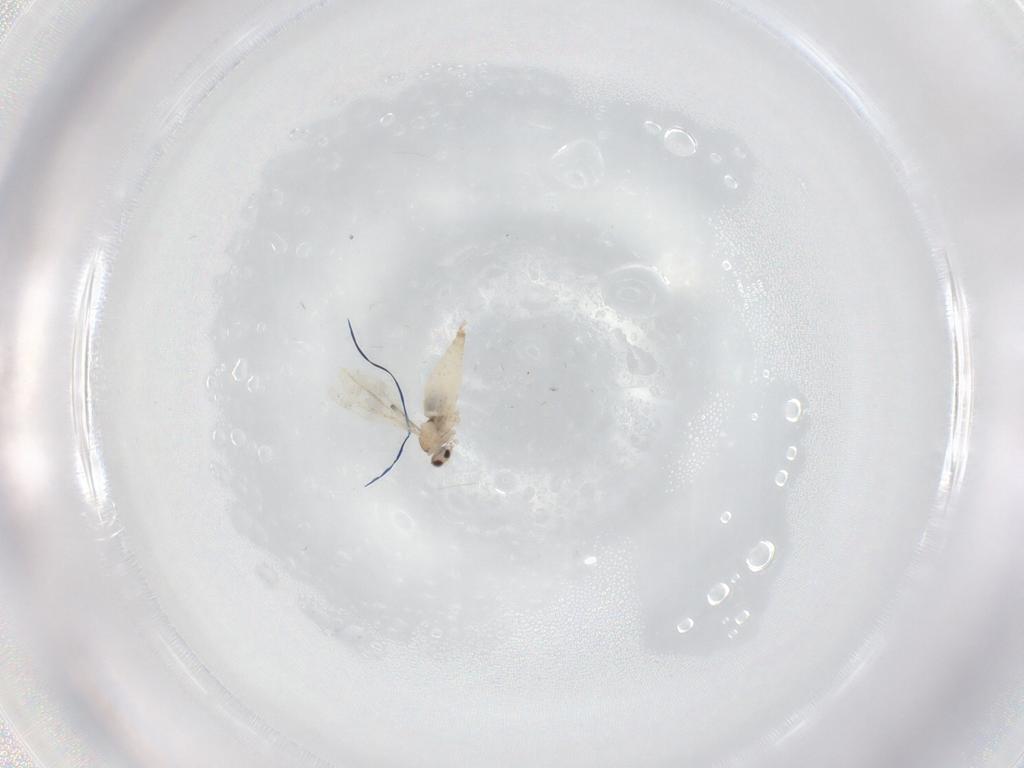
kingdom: Animalia
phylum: Arthropoda
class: Insecta
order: Diptera
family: Cecidomyiidae
